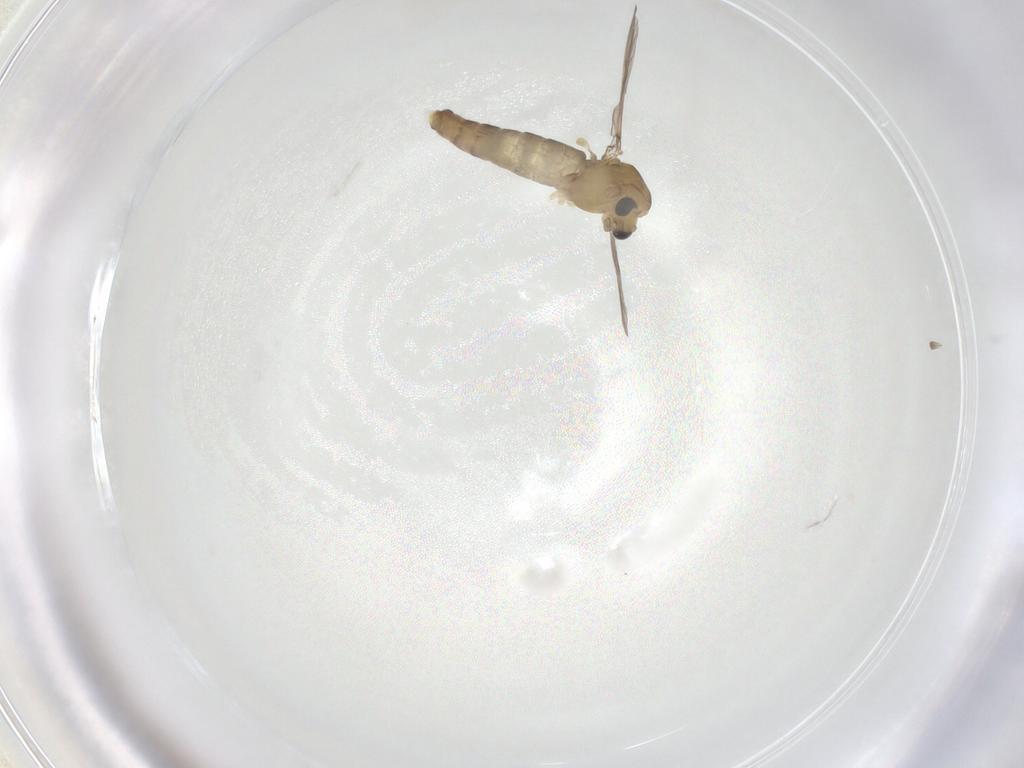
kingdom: Animalia
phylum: Arthropoda
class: Insecta
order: Diptera
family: Chironomidae
